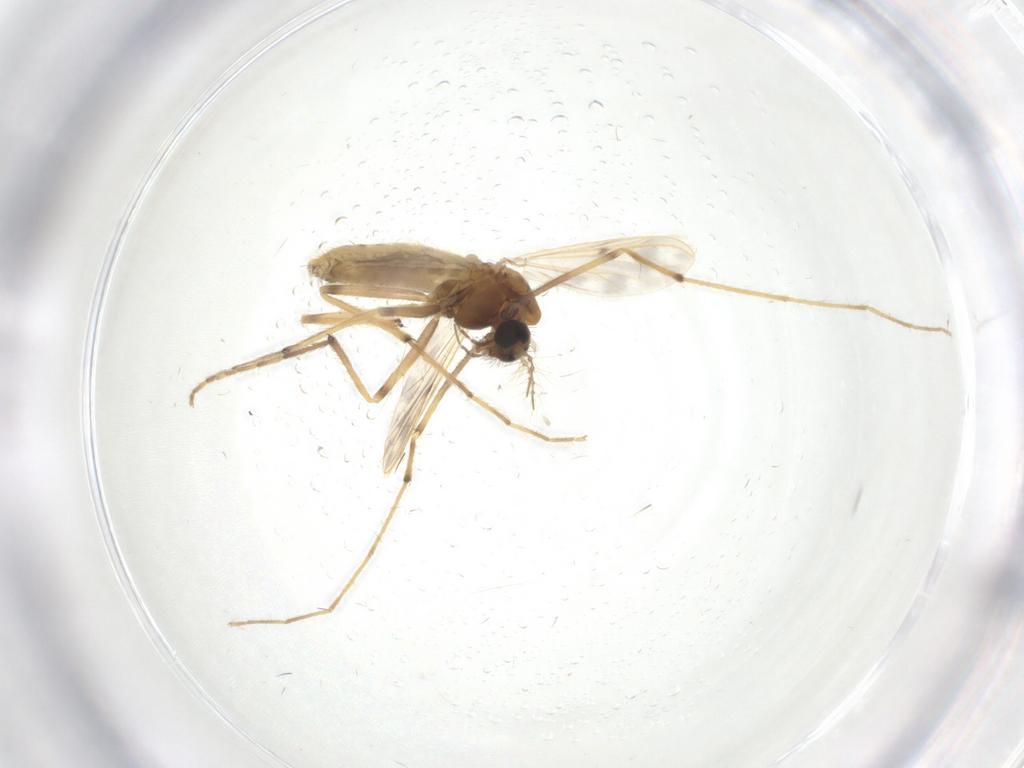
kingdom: Animalia
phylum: Arthropoda
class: Insecta
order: Diptera
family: Chironomidae
